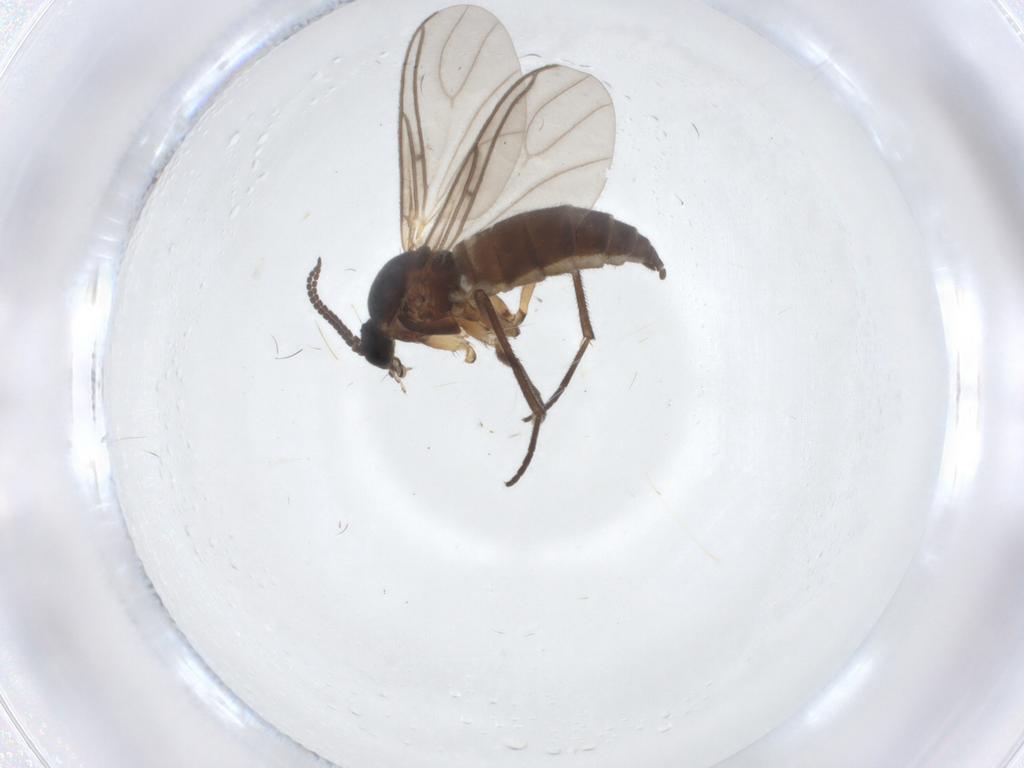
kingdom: Animalia
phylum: Arthropoda
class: Insecta
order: Diptera
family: Sciaridae
